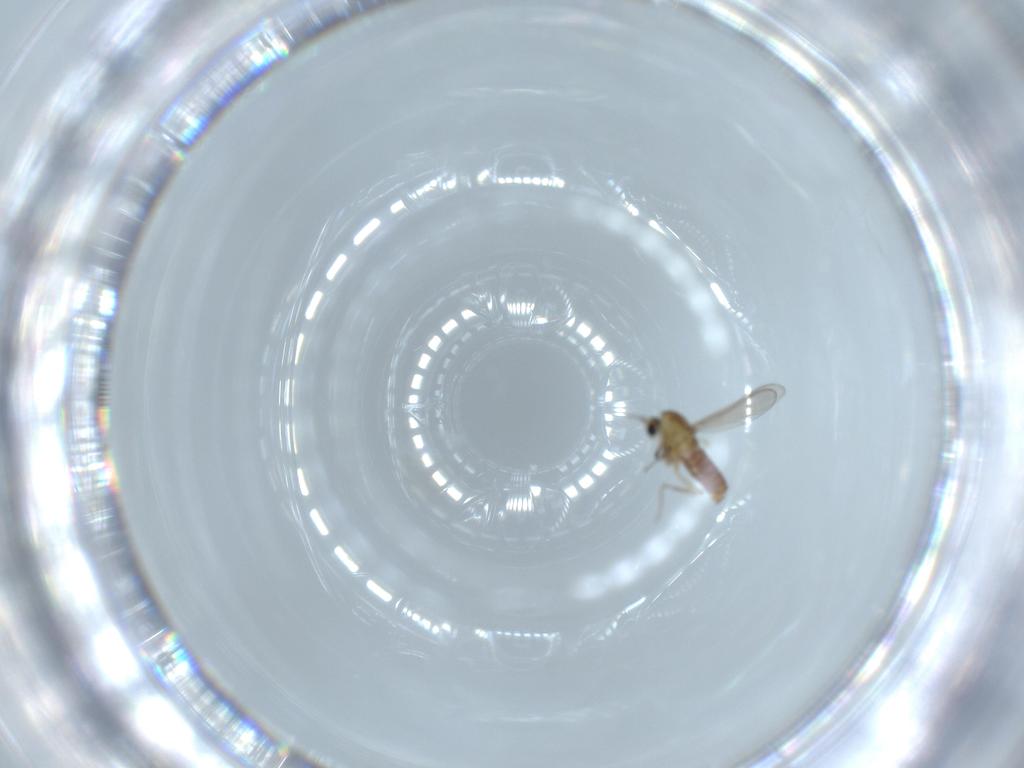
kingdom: Animalia
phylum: Arthropoda
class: Insecta
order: Diptera
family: Chironomidae
